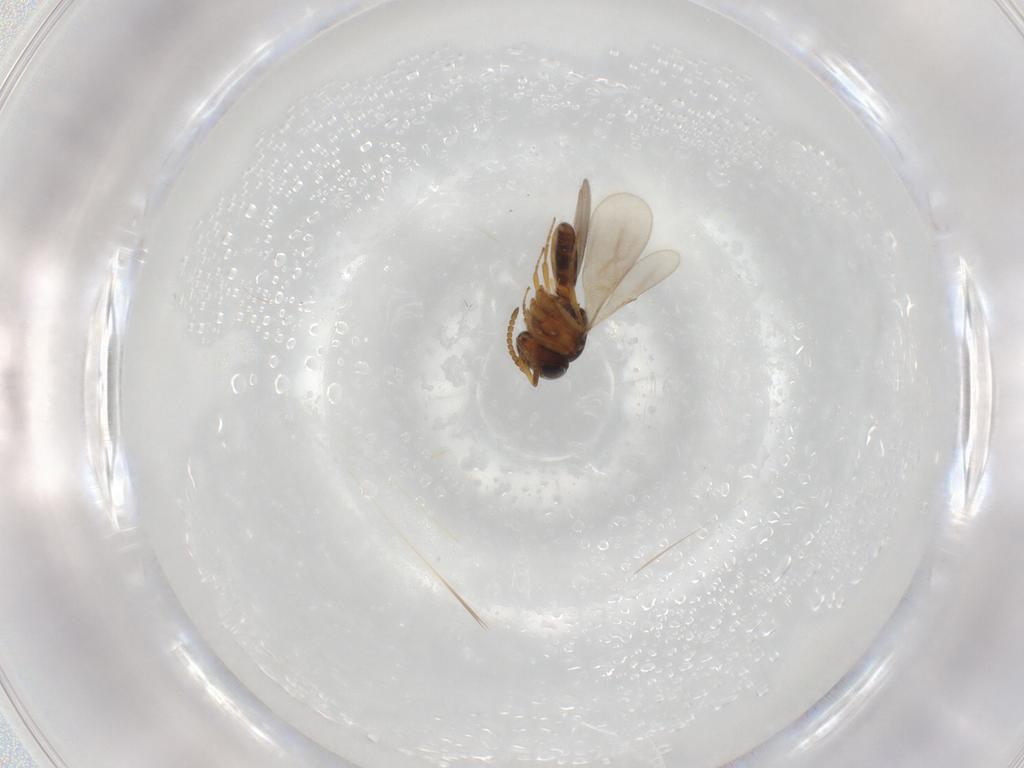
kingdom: Animalia
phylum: Arthropoda
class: Insecta
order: Hymenoptera
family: Scelionidae
